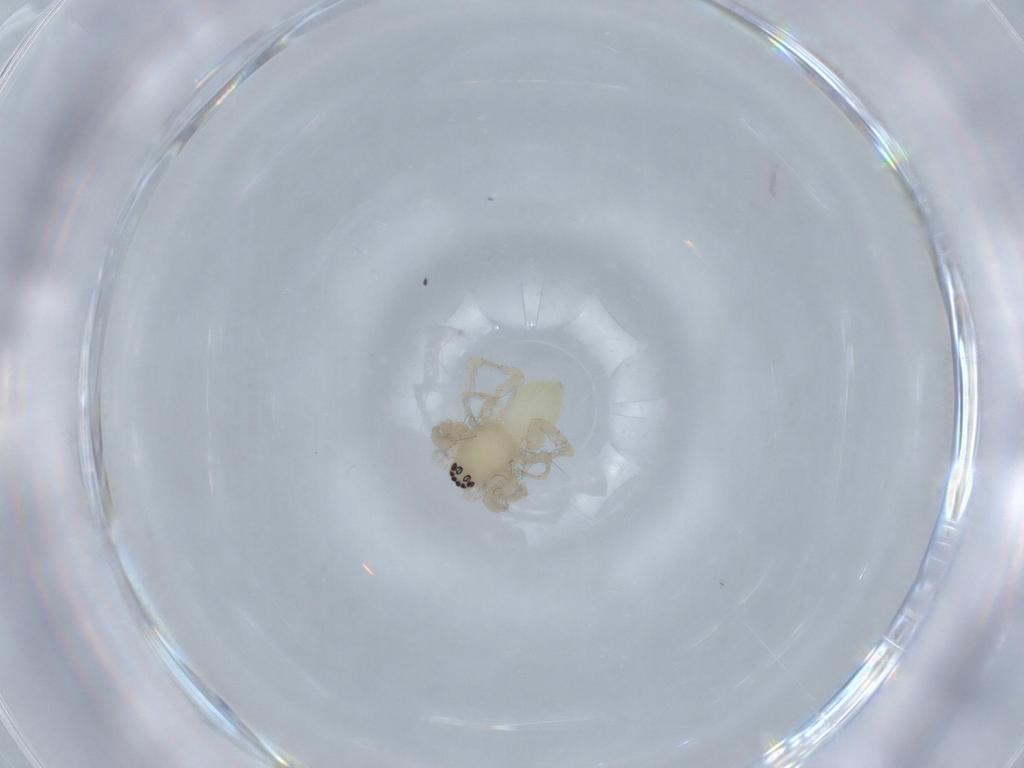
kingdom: Animalia
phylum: Arthropoda
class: Arachnida
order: Araneae
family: Anyphaenidae
